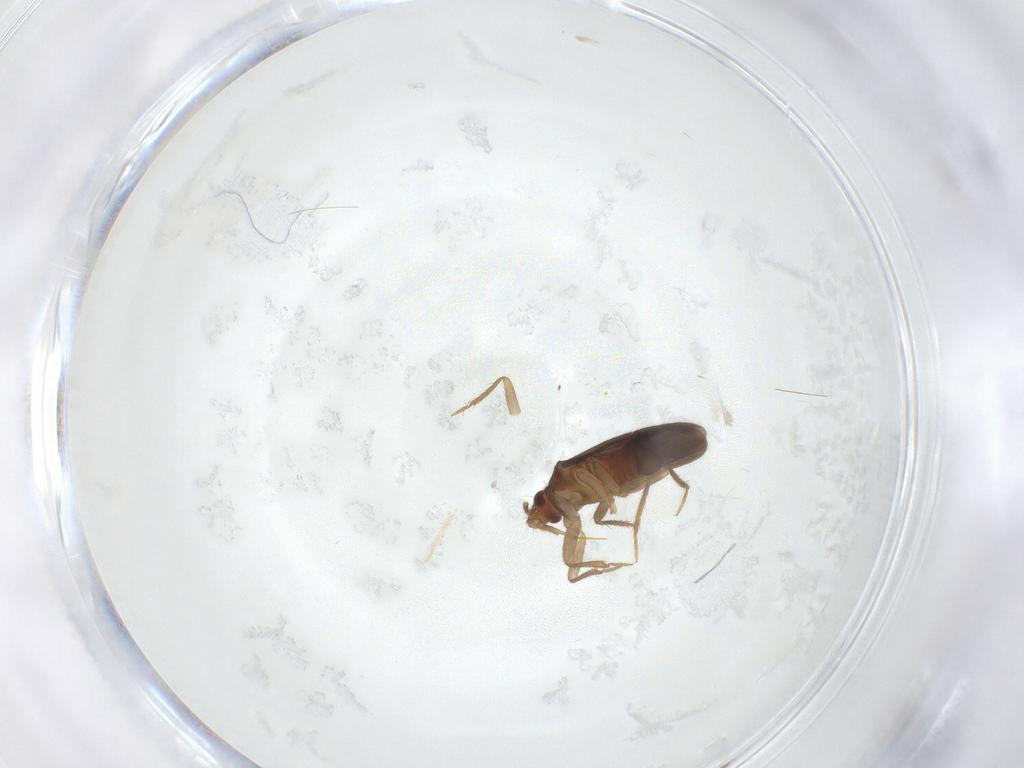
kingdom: Animalia
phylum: Arthropoda
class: Insecta
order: Hemiptera
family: Ceratocombidae
